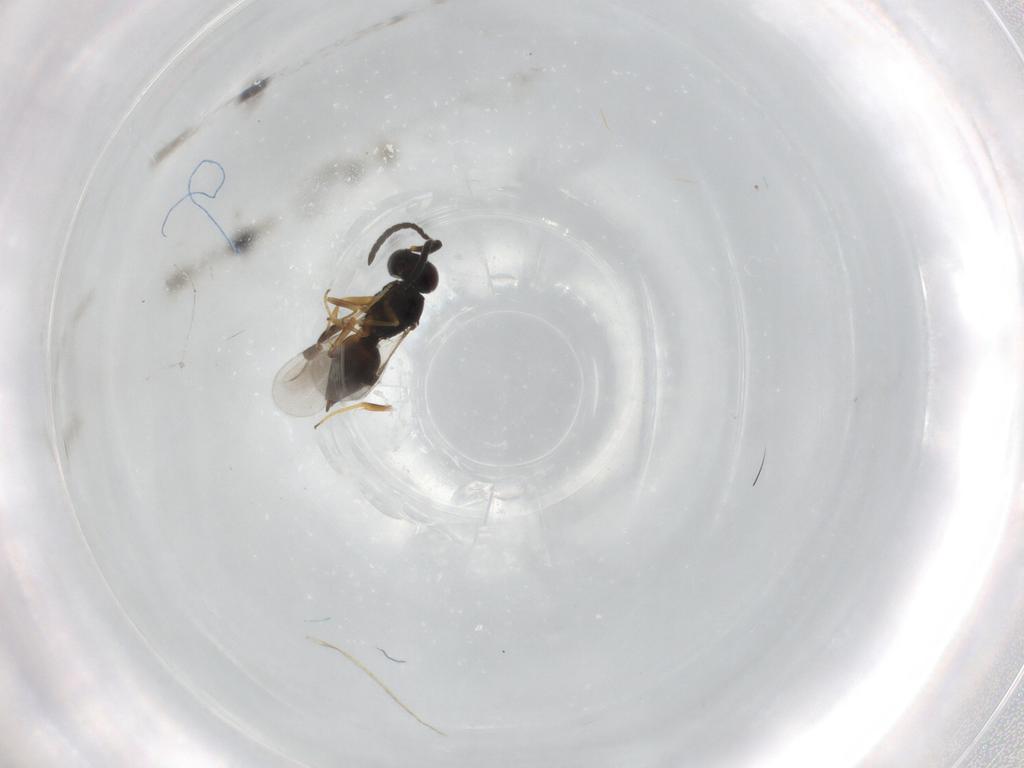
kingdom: Animalia
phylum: Arthropoda
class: Insecta
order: Hymenoptera
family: Megaspilidae
